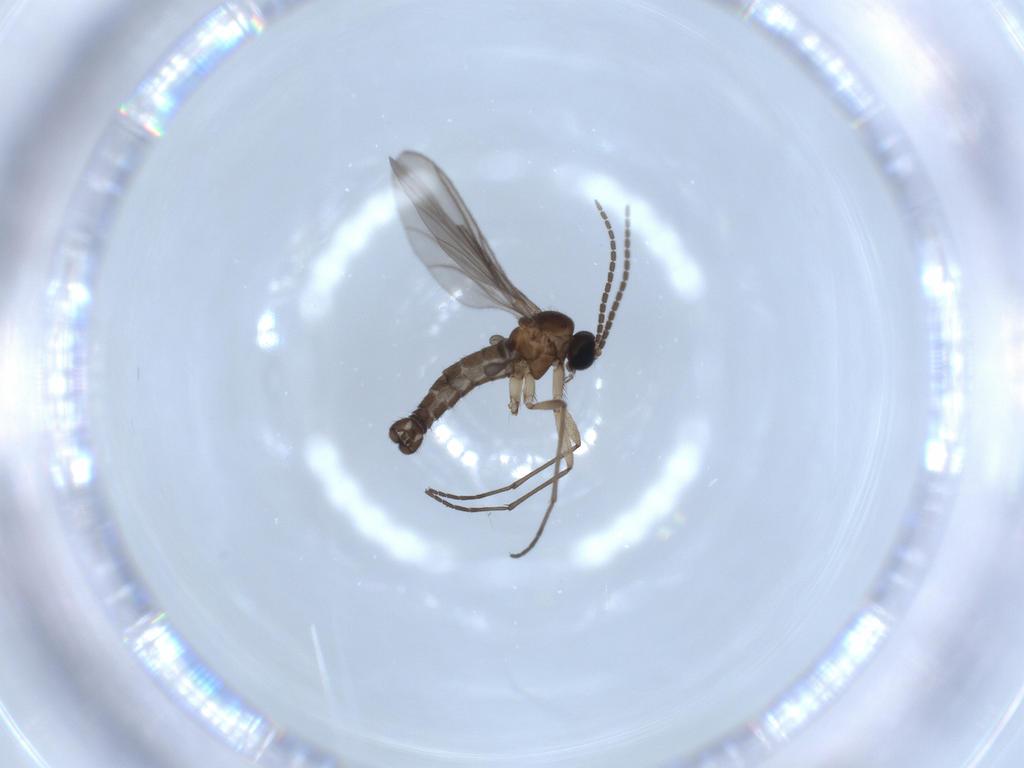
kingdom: Animalia
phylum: Arthropoda
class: Insecta
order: Diptera
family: Sciaridae
